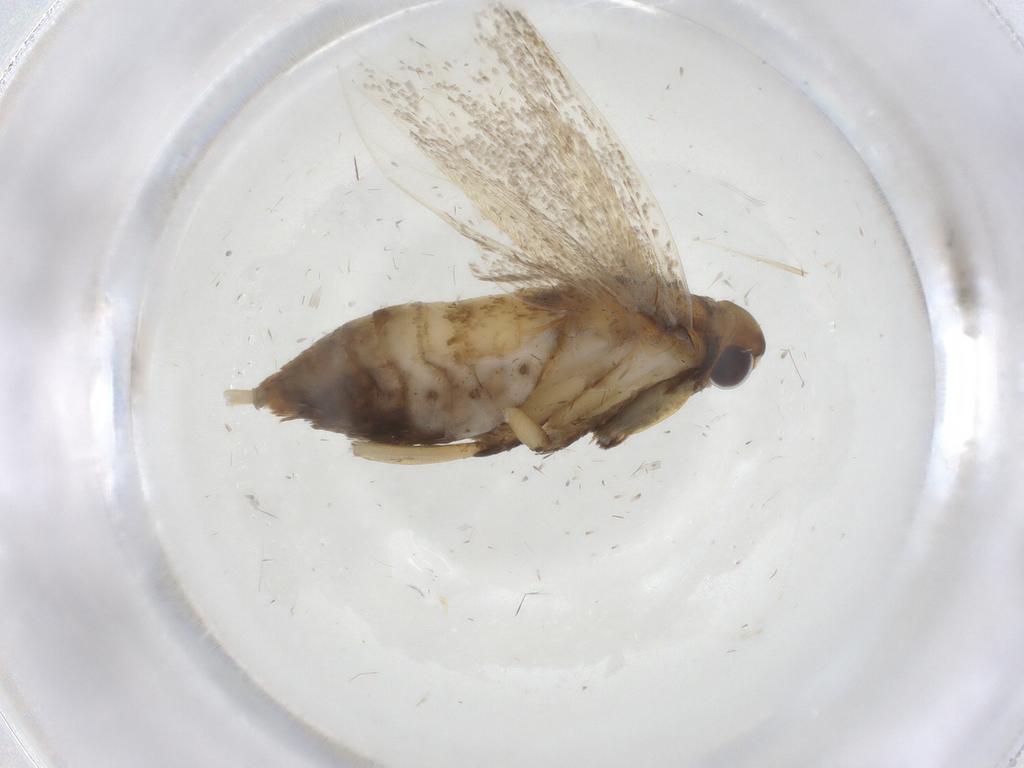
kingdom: Animalia
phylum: Arthropoda
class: Insecta
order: Lepidoptera
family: Lecithoceridae
